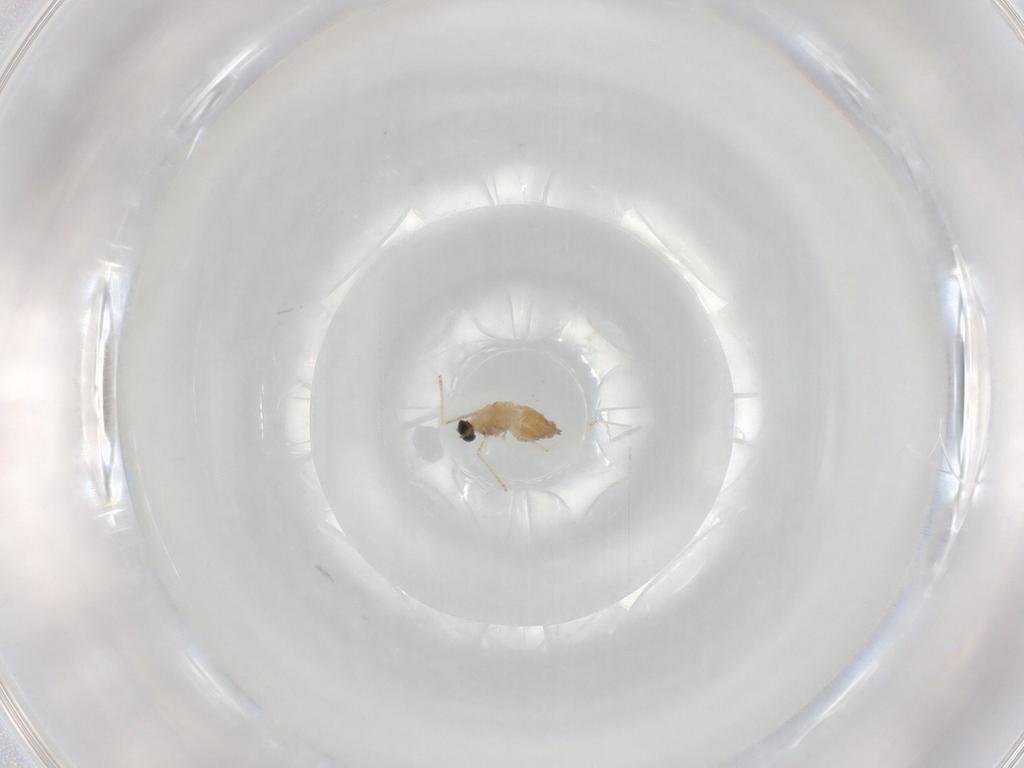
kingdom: Animalia
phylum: Arthropoda
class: Insecta
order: Diptera
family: Cecidomyiidae
